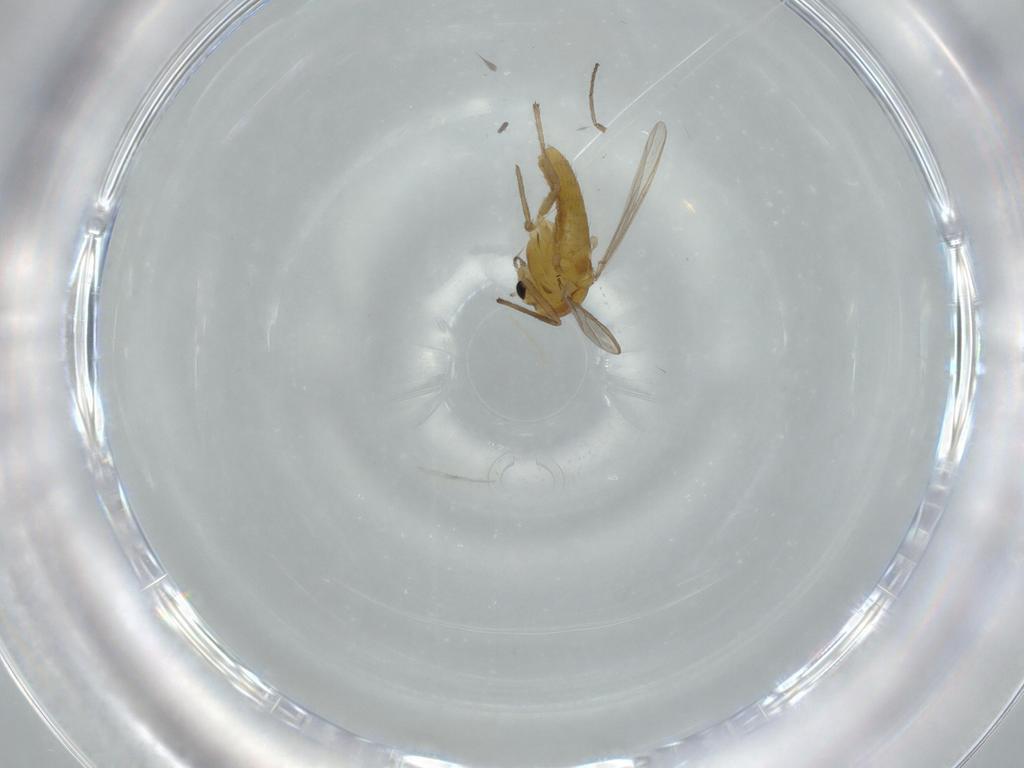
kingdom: Animalia
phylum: Arthropoda
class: Insecta
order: Diptera
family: Chironomidae
